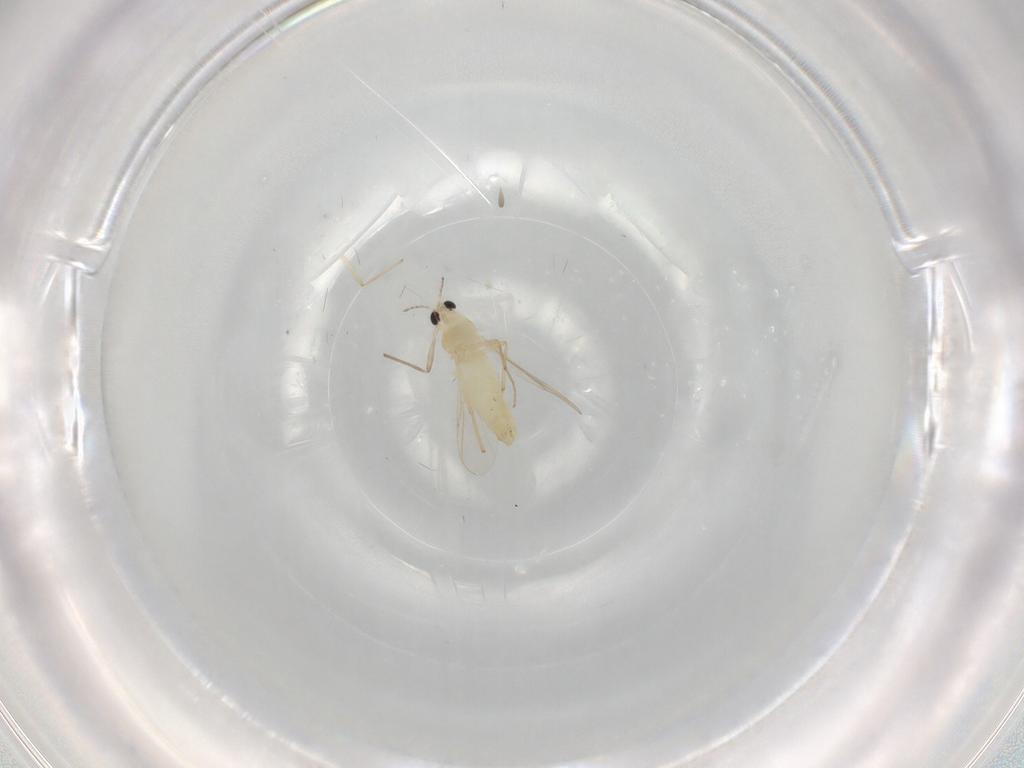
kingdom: Animalia
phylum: Arthropoda
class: Insecta
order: Diptera
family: Chironomidae
